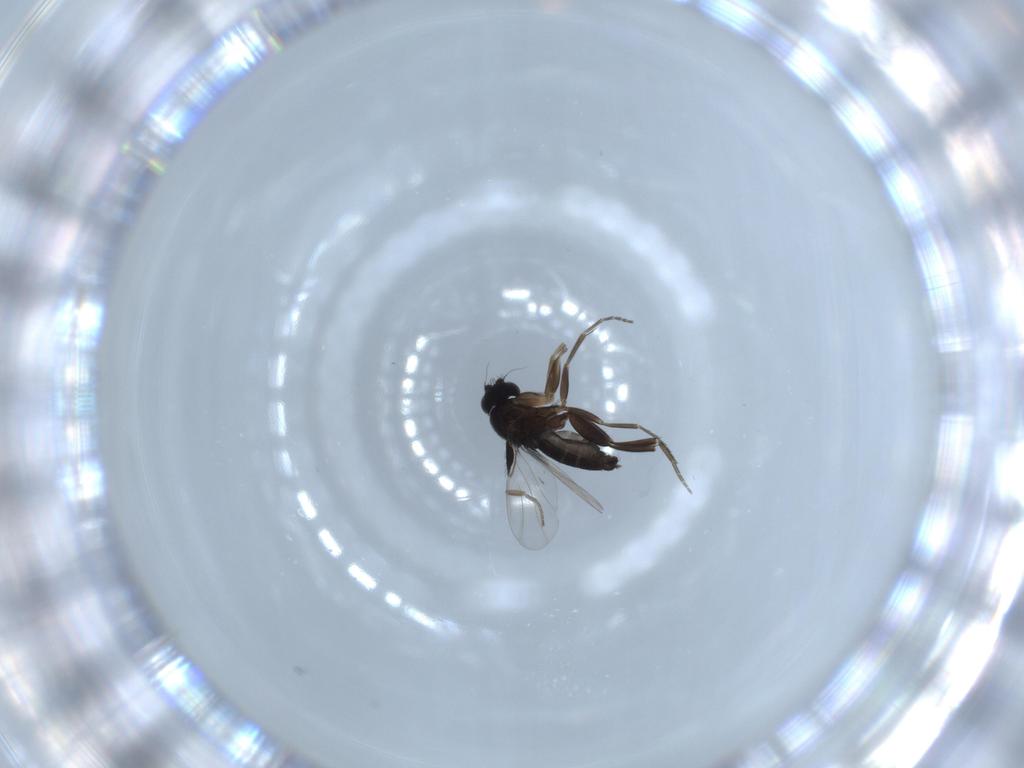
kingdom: Animalia
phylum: Arthropoda
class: Insecta
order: Diptera
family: Phoridae
